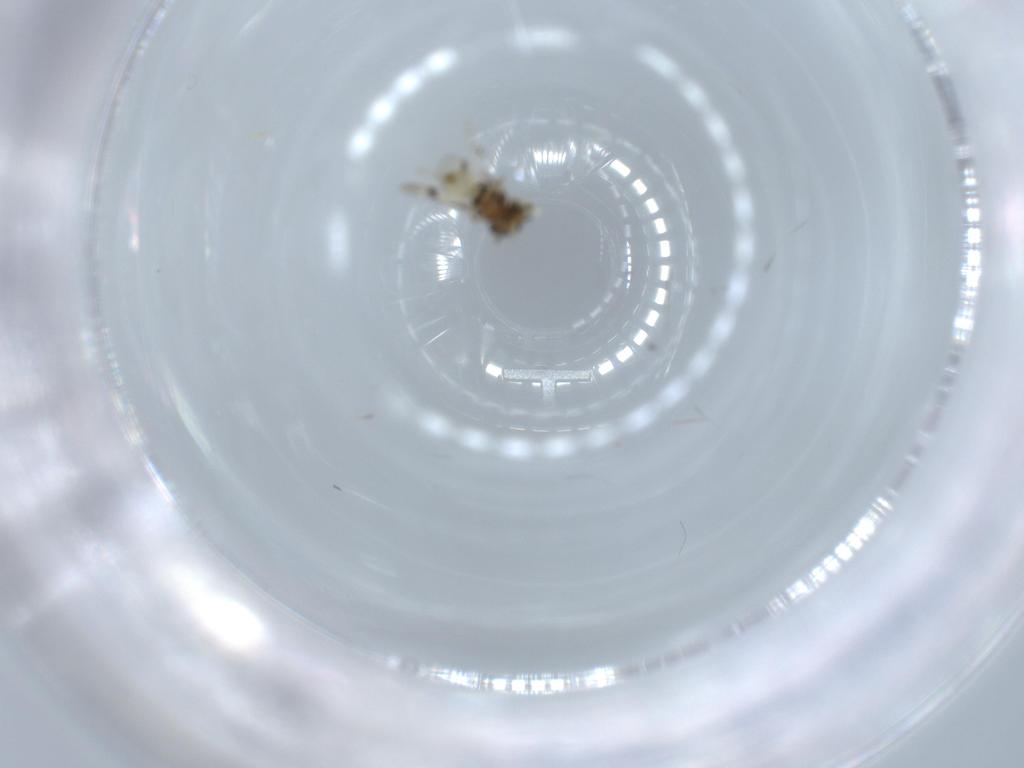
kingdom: Animalia
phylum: Arthropoda
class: Insecta
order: Hymenoptera
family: Scelionidae
